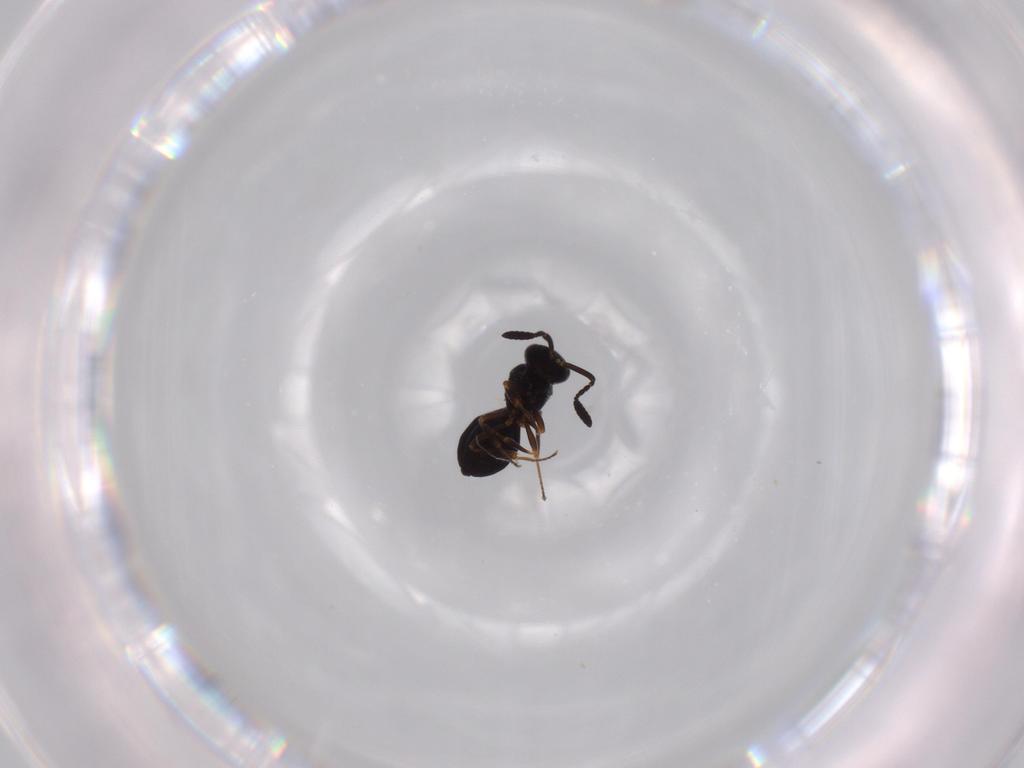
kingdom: Animalia
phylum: Arthropoda
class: Insecta
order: Hymenoptera
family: Scelionidae
